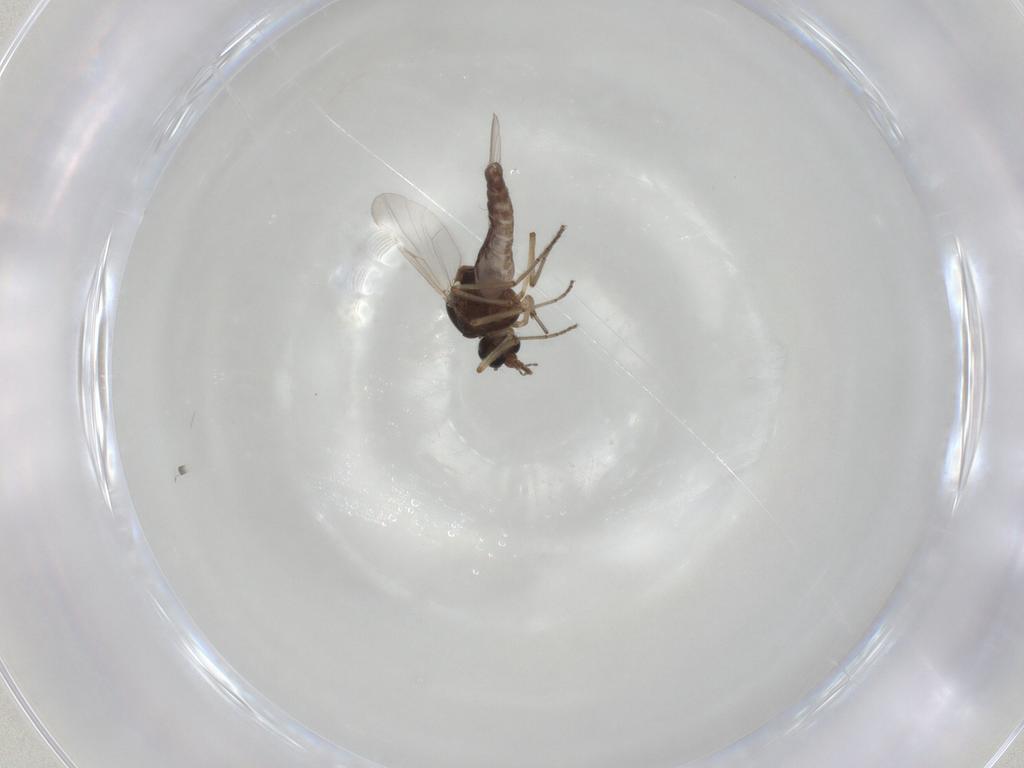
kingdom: Animalia
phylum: Arthropoda
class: Insecta
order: Diptera
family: Ceratopogonidae
